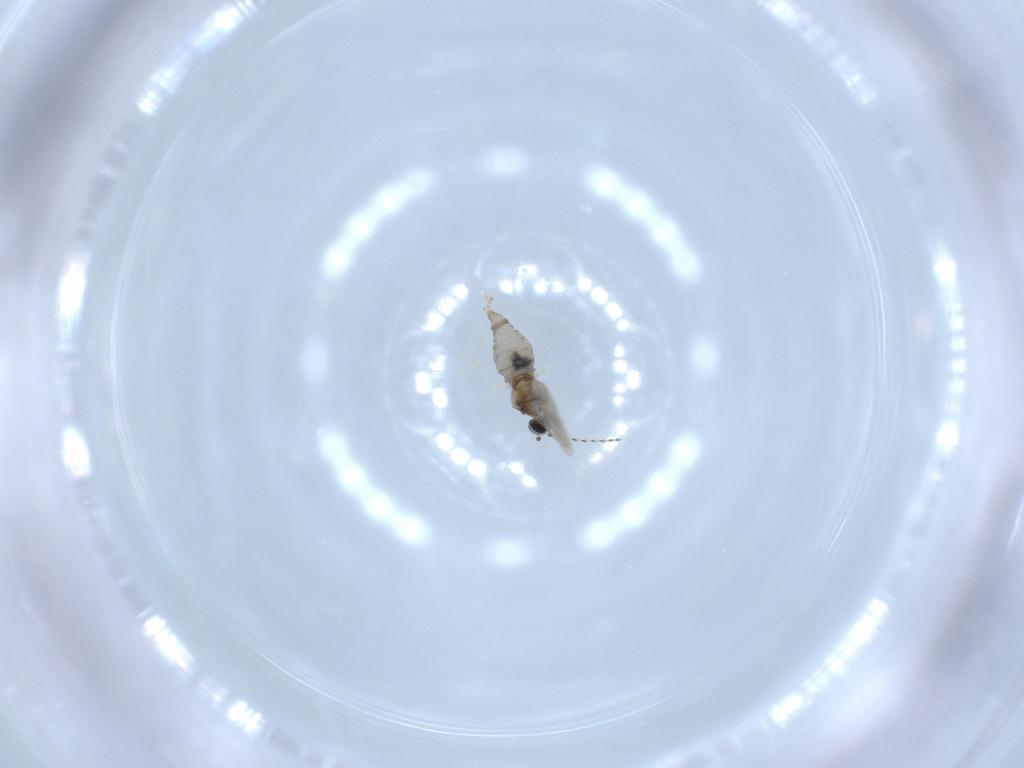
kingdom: Animalia
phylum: Arthropoda
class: Insecta
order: Diptera
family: Cecidomyiidae
